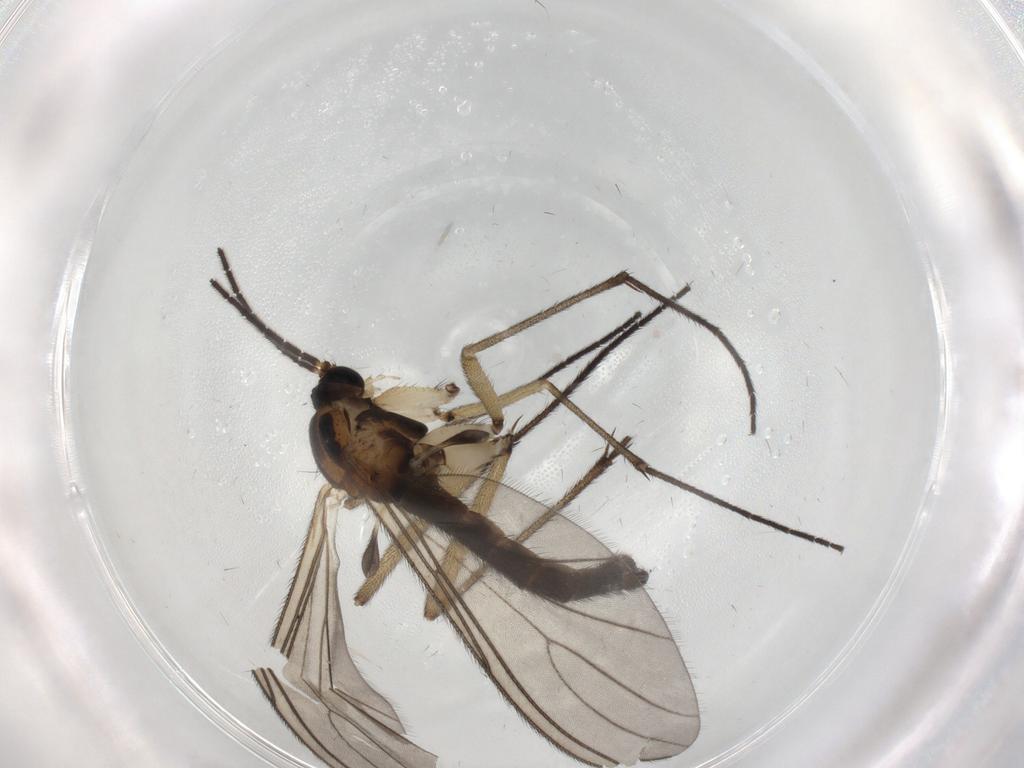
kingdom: Animalia
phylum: Arthropoda
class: Insecta
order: Diptera
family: Sciaridae
